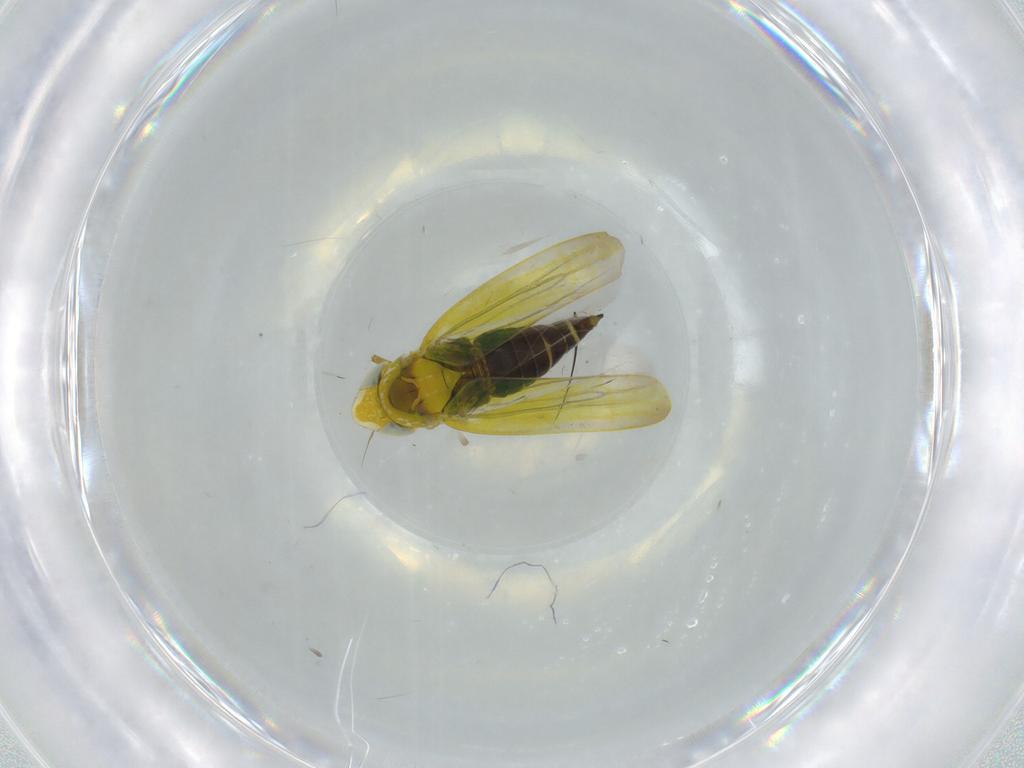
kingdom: Animalia
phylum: Arthropoda
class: Insecta
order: Hemiptera
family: Cicadellidae
